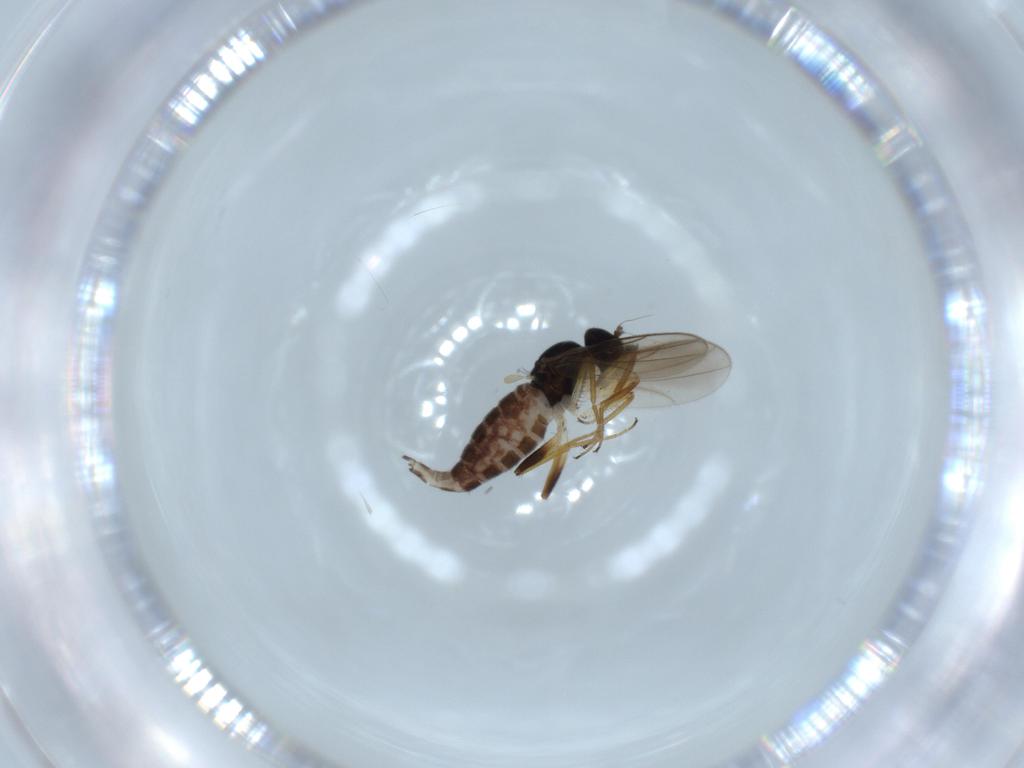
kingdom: Animalia
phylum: Arthropoda
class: Insecta
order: Diptera
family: Hybotidae
